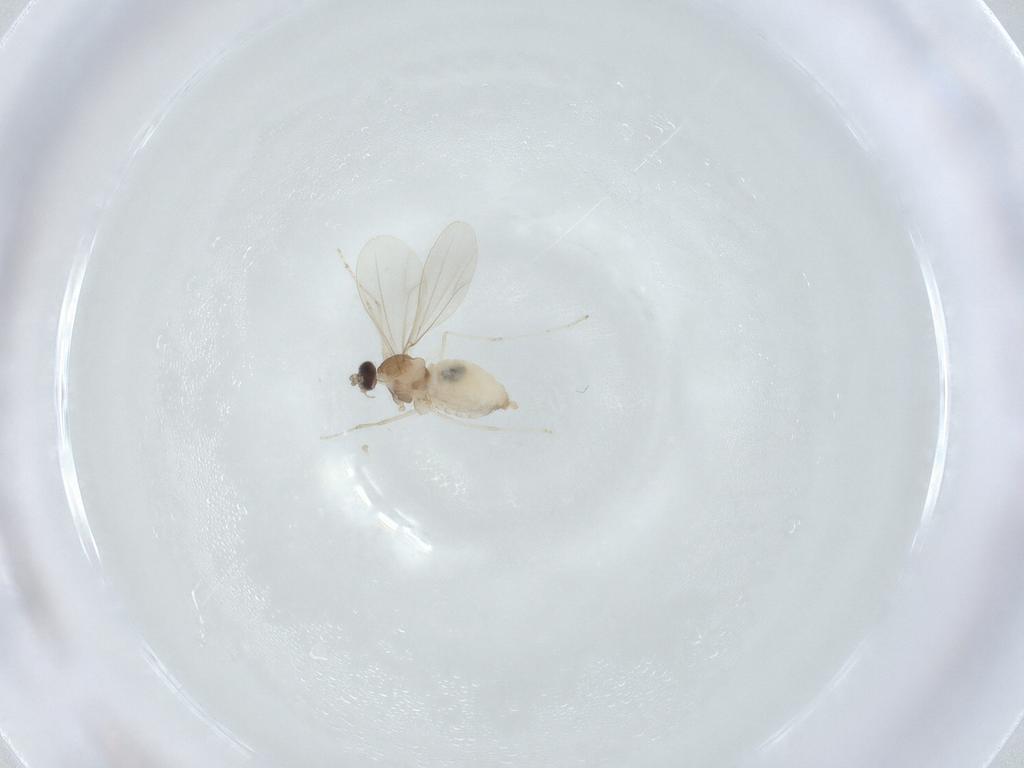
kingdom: Animalia
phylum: Arthropoda
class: Insecta
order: Diptera
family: Cecidomyiidae
